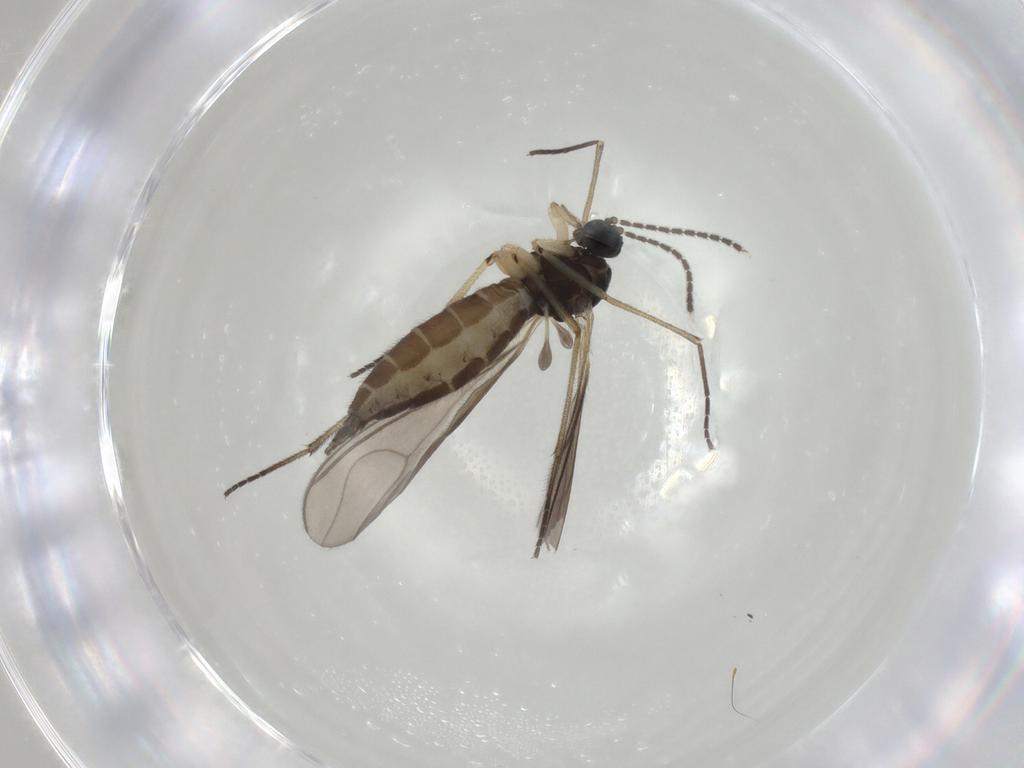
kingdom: Animalia
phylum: Arthropoda
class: Insecta
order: Diptera
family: Sciaridae
